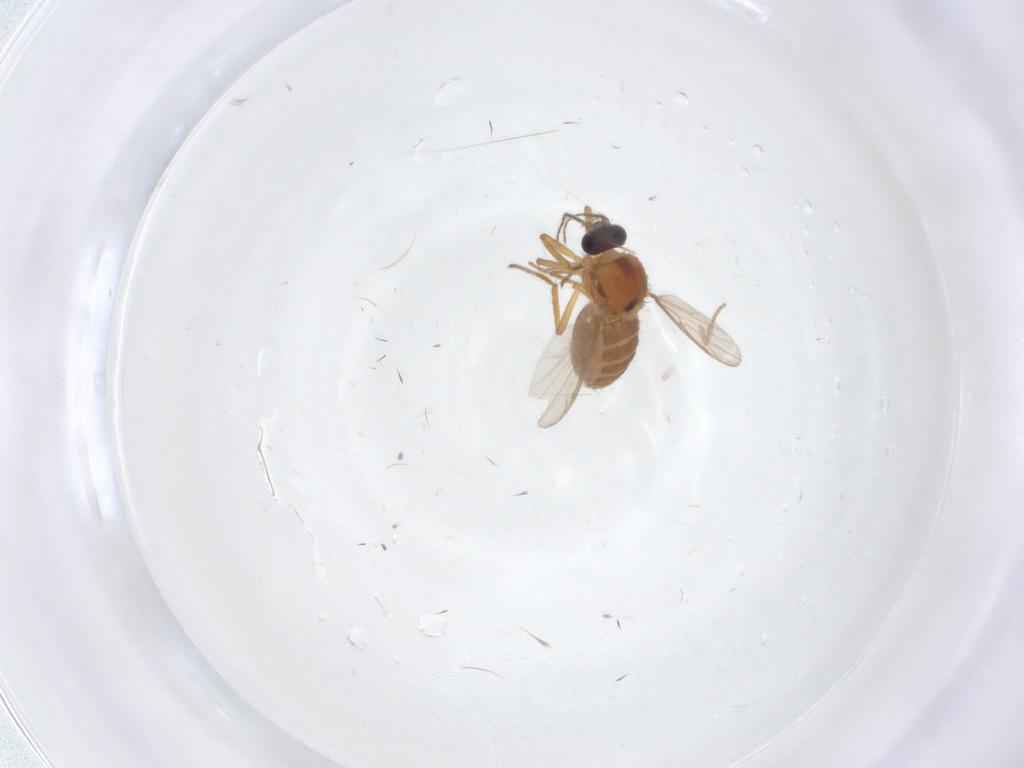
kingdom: Animalia
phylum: Arthropoda
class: Insecta
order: Diptera
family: Ceratopogonidae
